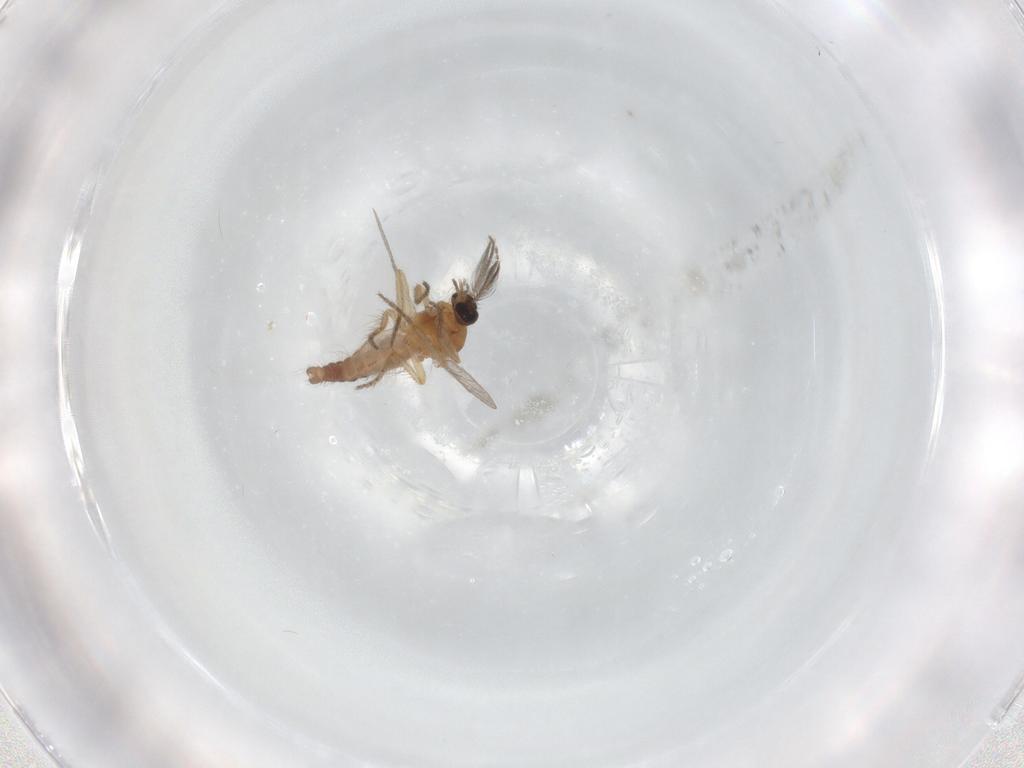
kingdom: Animalia
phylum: Arthropoda
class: Insecta
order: Diptera
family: Ceratopogonidae
